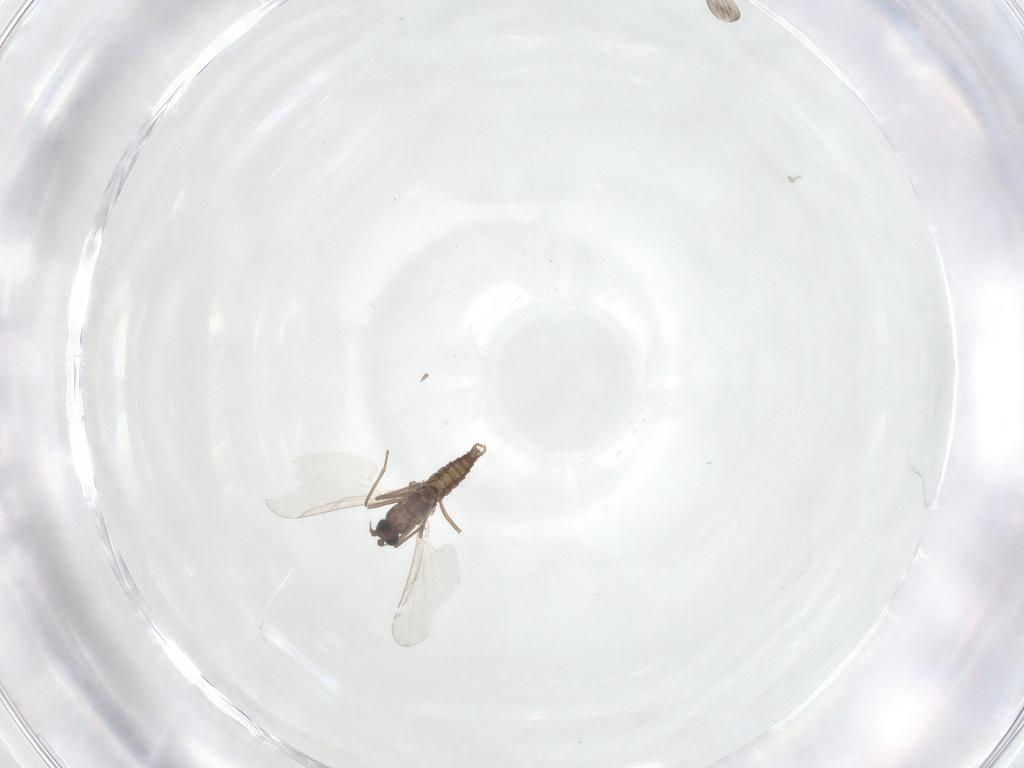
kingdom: Animalia
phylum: Arthropoda
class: Insecta
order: Diptera
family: Cecidomyiidae
